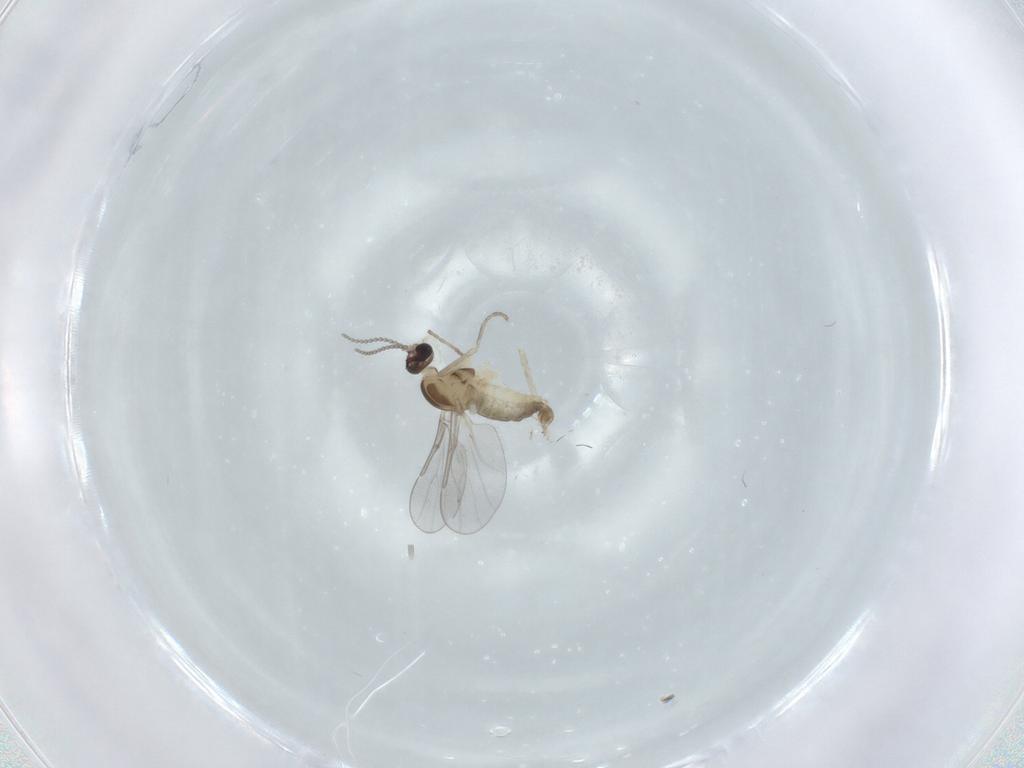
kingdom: Animalia
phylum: Arthropoda
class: Insecta
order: Diptera
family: Cecidomyiidae
